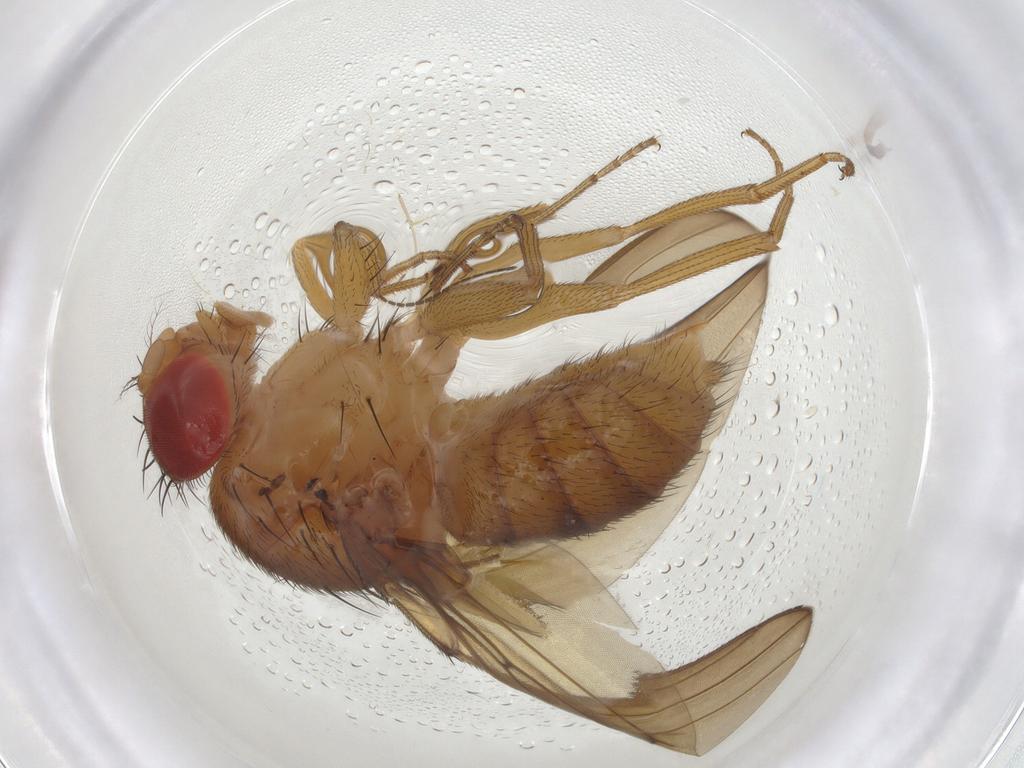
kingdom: Animalia
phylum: Arthropoda
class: Insecta
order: Diptera
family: Drosophilidae
